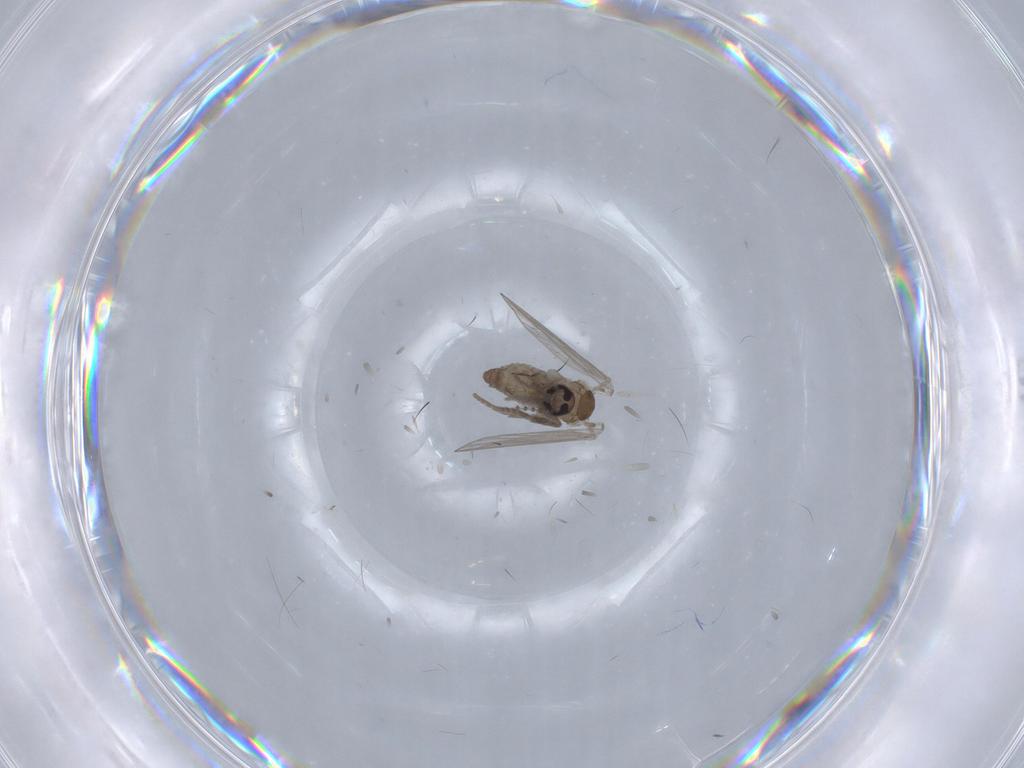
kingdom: Animalia
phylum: Arthropoda
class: Insecta
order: Diptera
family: Psychodidae
